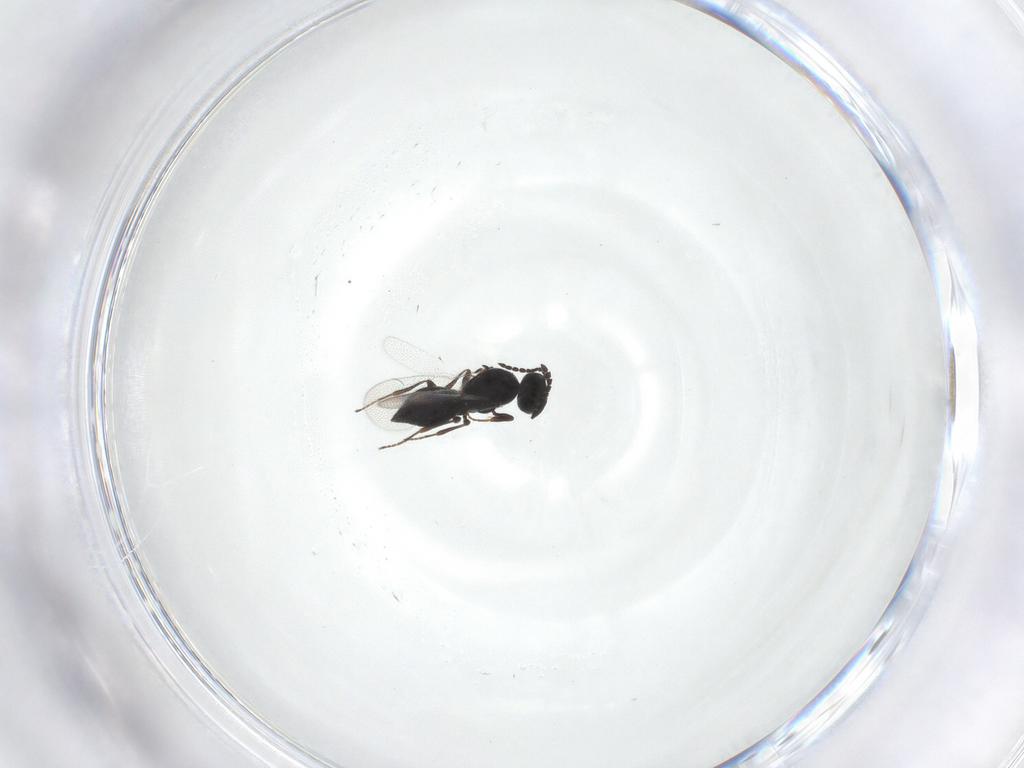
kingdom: Animalia
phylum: Arthropoda
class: Insecta
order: Hymenoptera
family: Platygastridae
